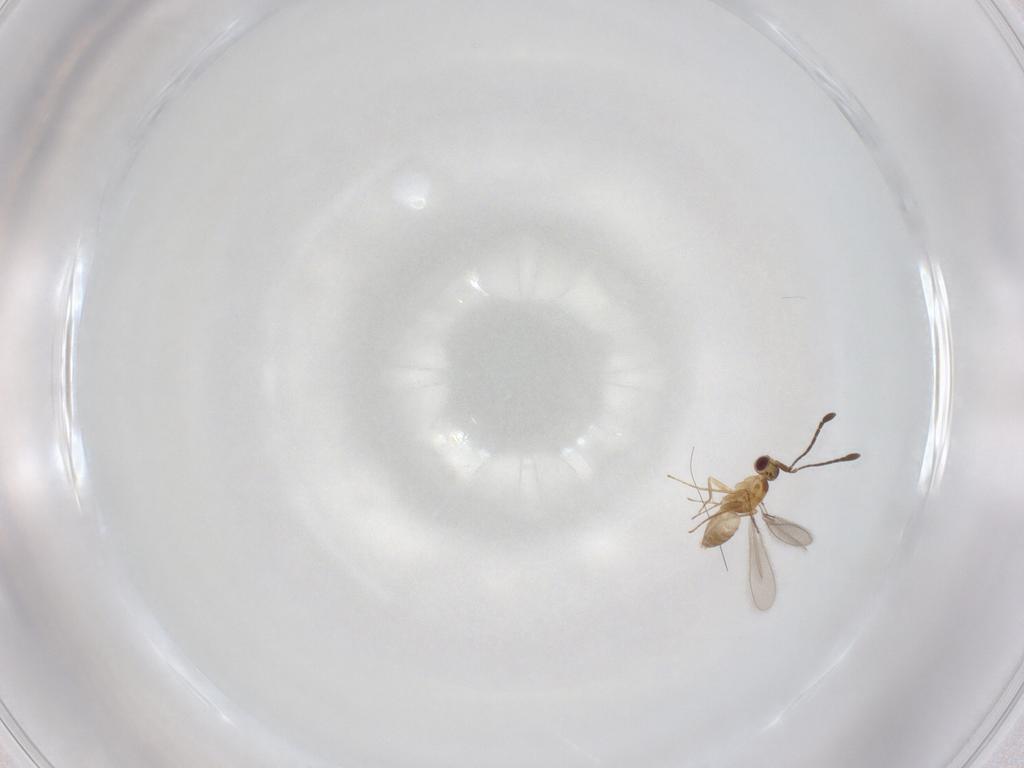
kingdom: Animalia
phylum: Arthropoda
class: Insecta
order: Hymenoptera
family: Mymaridae
